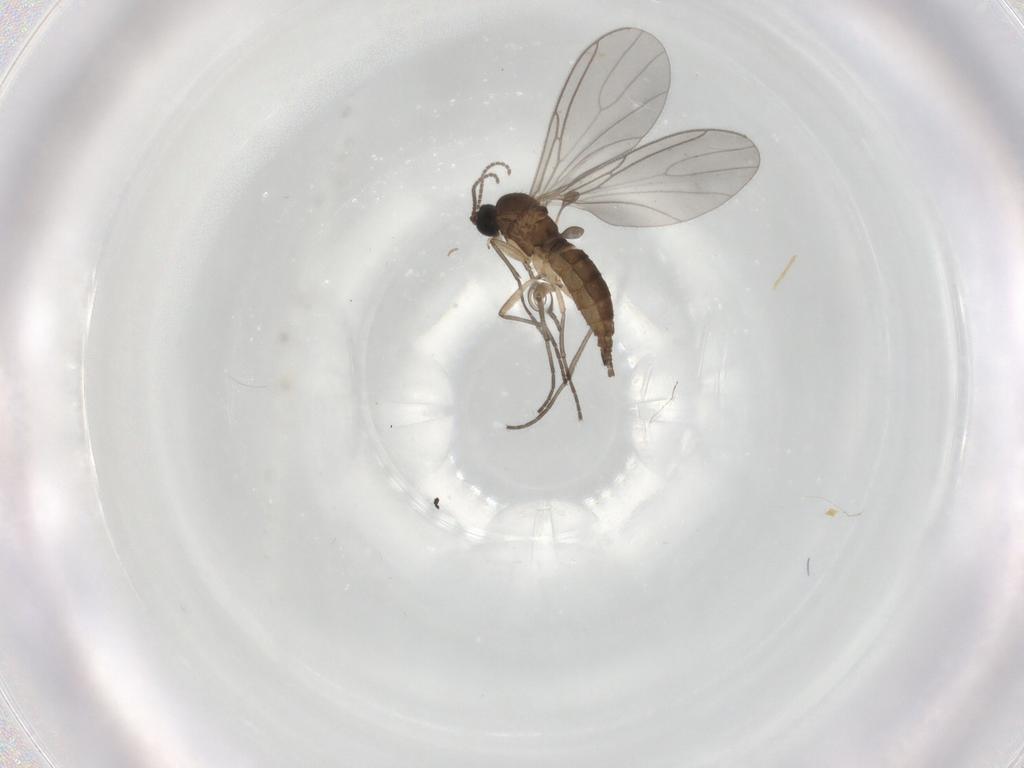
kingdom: Animalia
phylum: Arthropoda
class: Insecta
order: Diptera
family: Sciaridae
